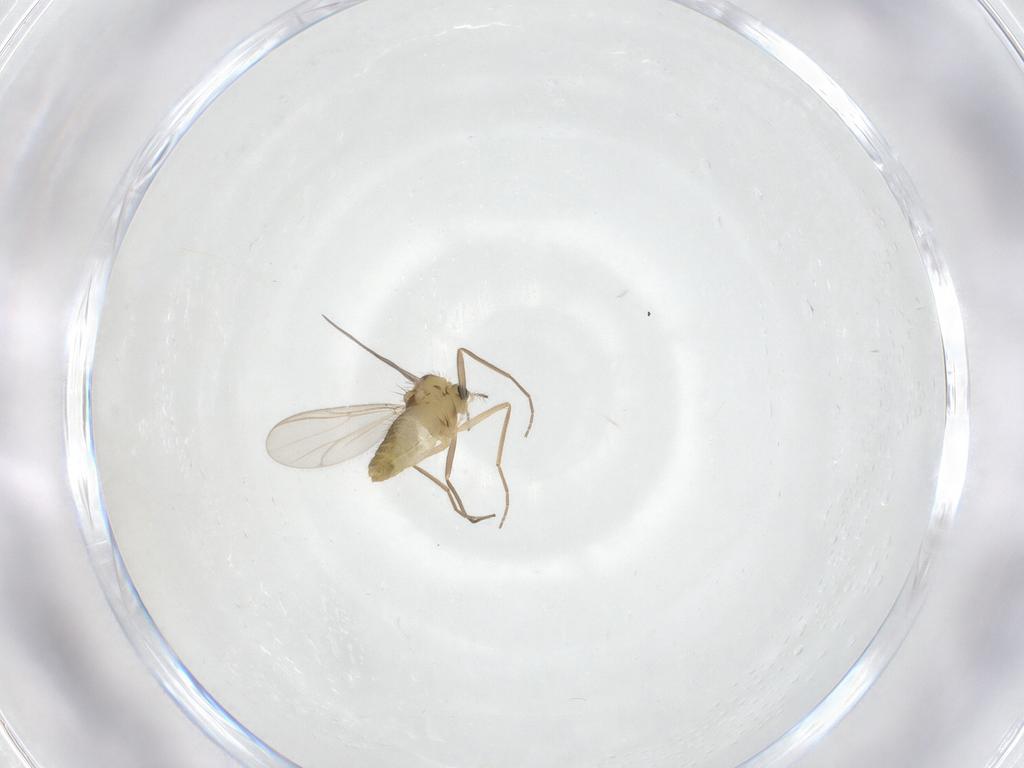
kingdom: Animalia
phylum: Arthropoda
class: Insecta
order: Diptera
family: Chironomidae
